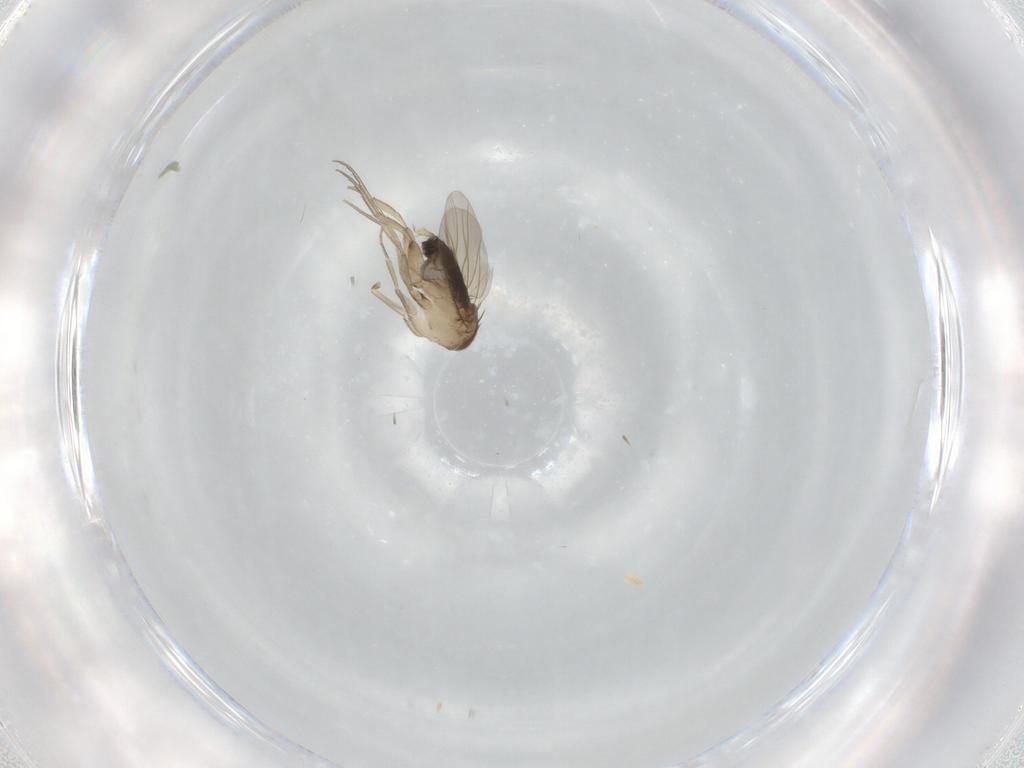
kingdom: Animalia
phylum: Arthropoda
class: Insecta
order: Diptera
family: Phoridae
